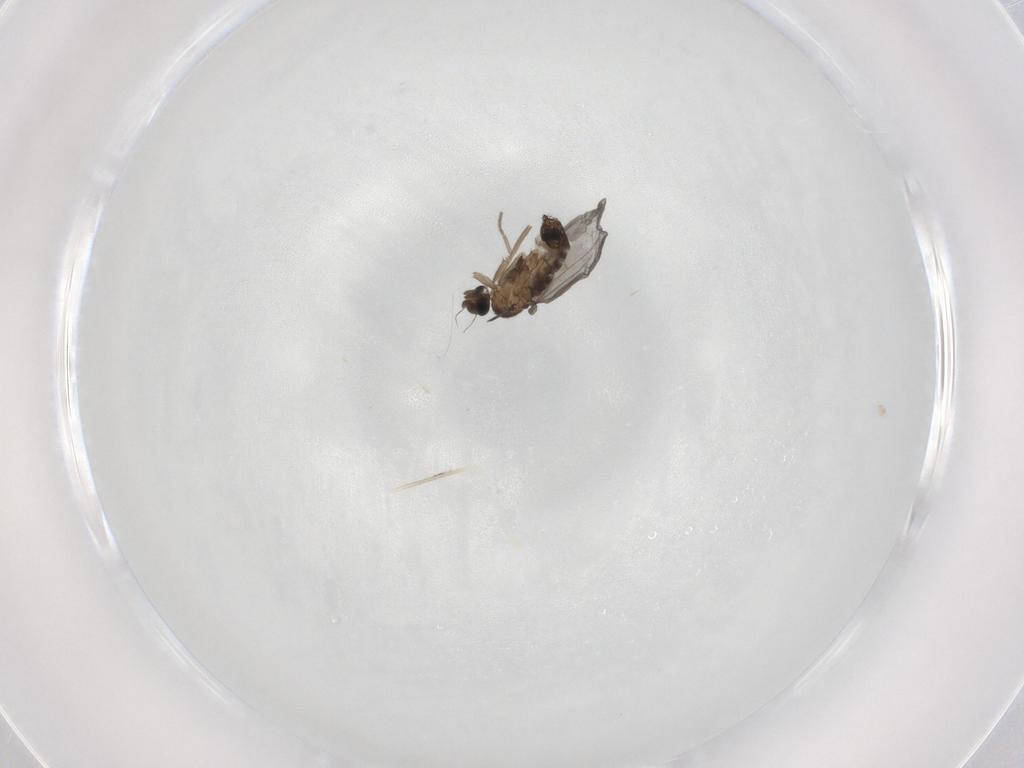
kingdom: Animalia
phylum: Arthropoda
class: Insecta
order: Diptera
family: Phoridae
